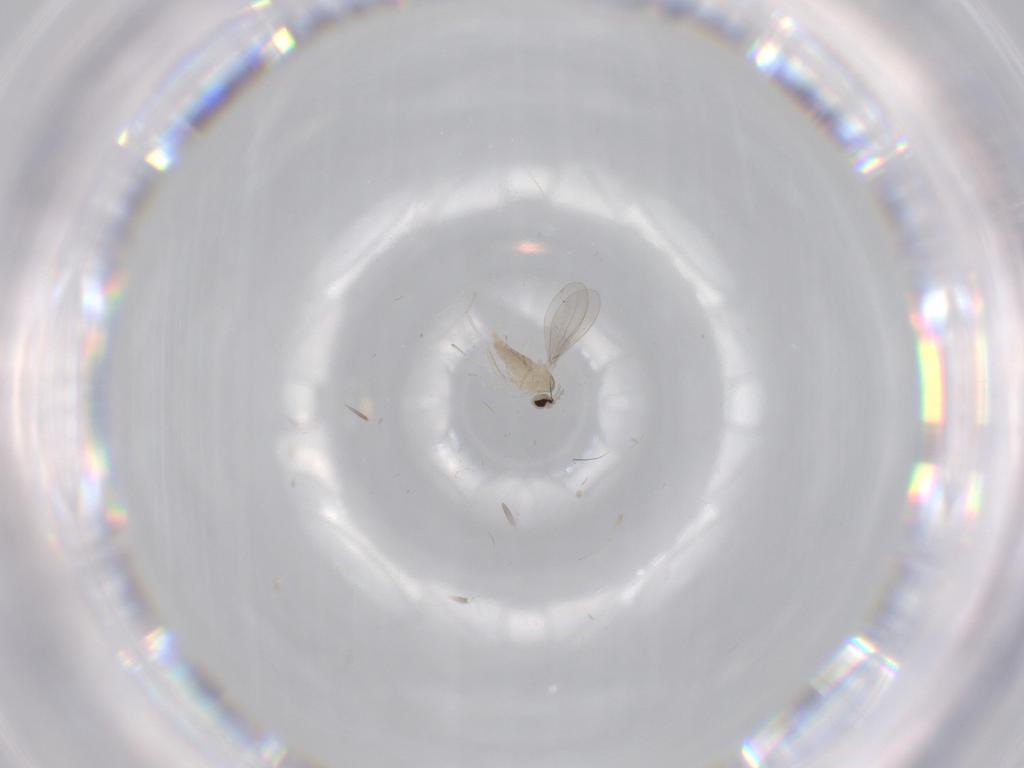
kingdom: Animalia
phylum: Arthropoda
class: Insecta
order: Diptera
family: Cecidomyiidae
